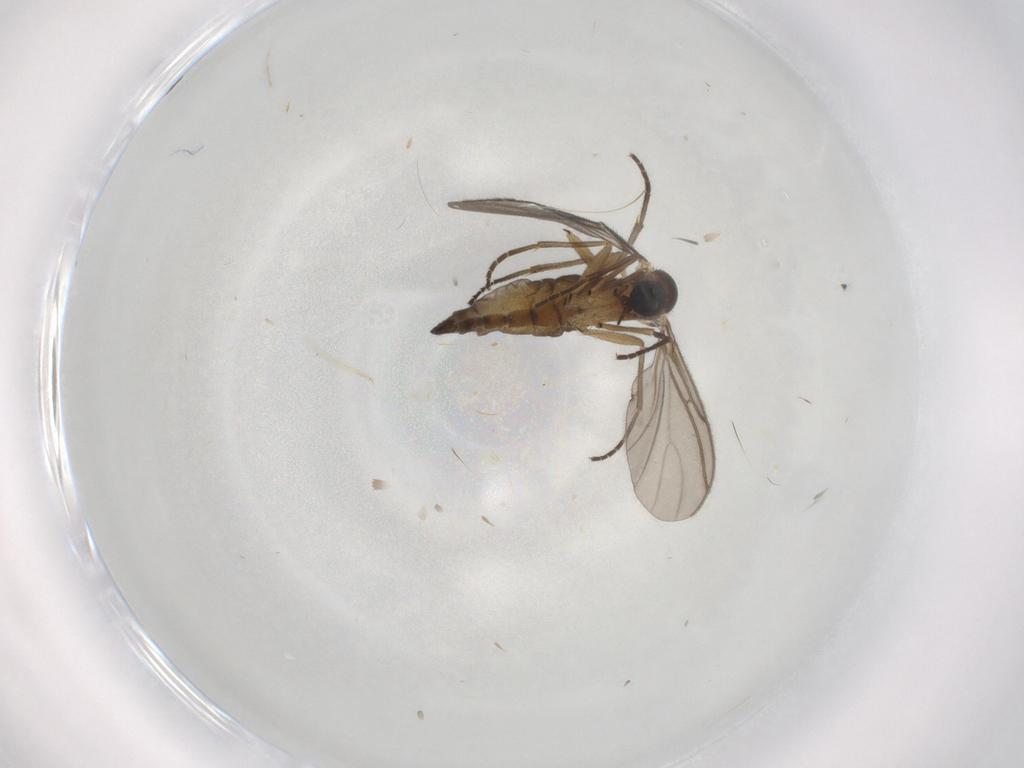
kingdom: Animalia
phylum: Arthropoda
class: Insecta
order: Diptera
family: Sciaridae
